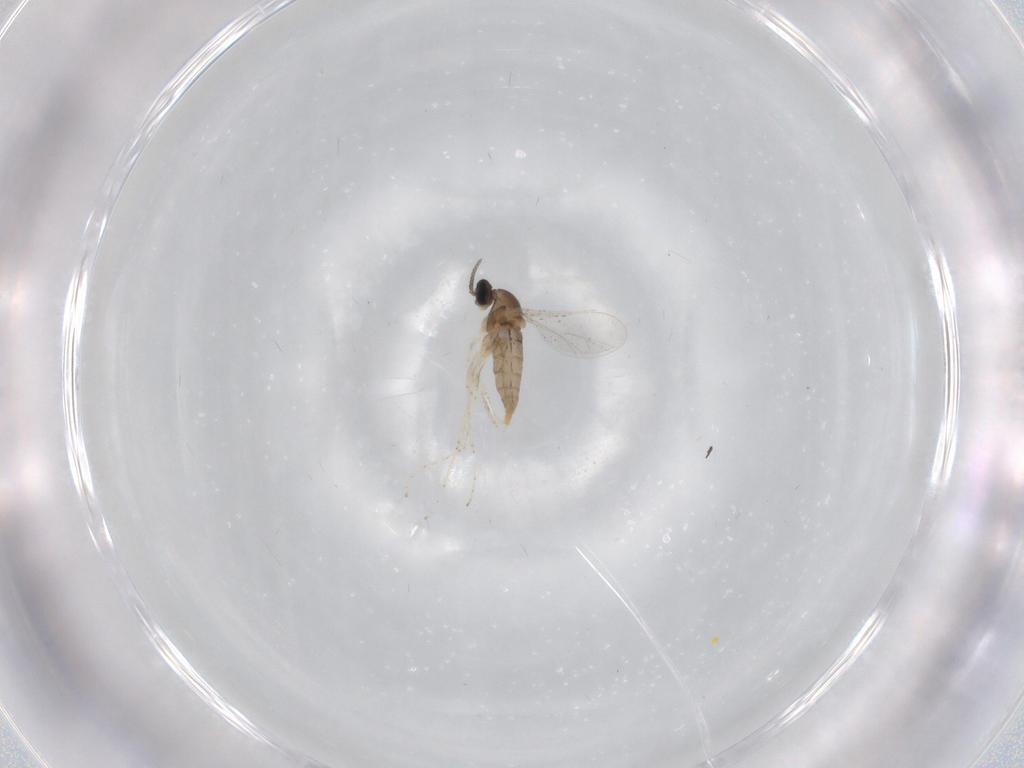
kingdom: Animalia
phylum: Arthropoda
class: Insecta
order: Diptera
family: Cecidomyiidae
